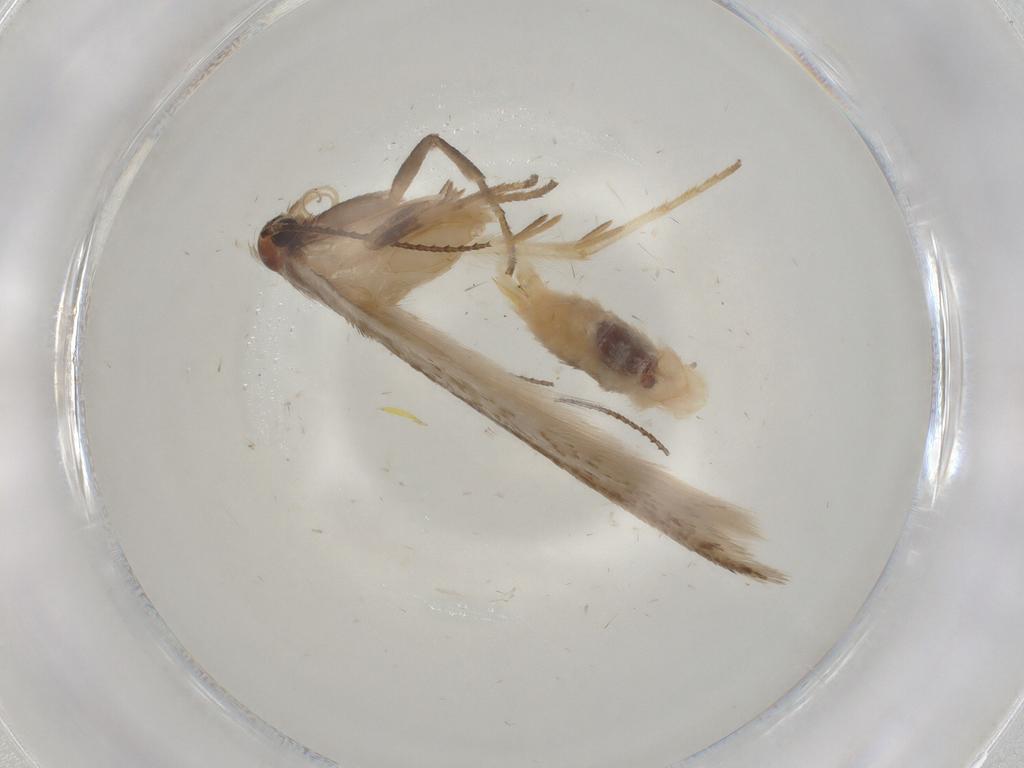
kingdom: Animalia
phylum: Arthropoda
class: Insecta
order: Lepidoptera
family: Gelechiidae
